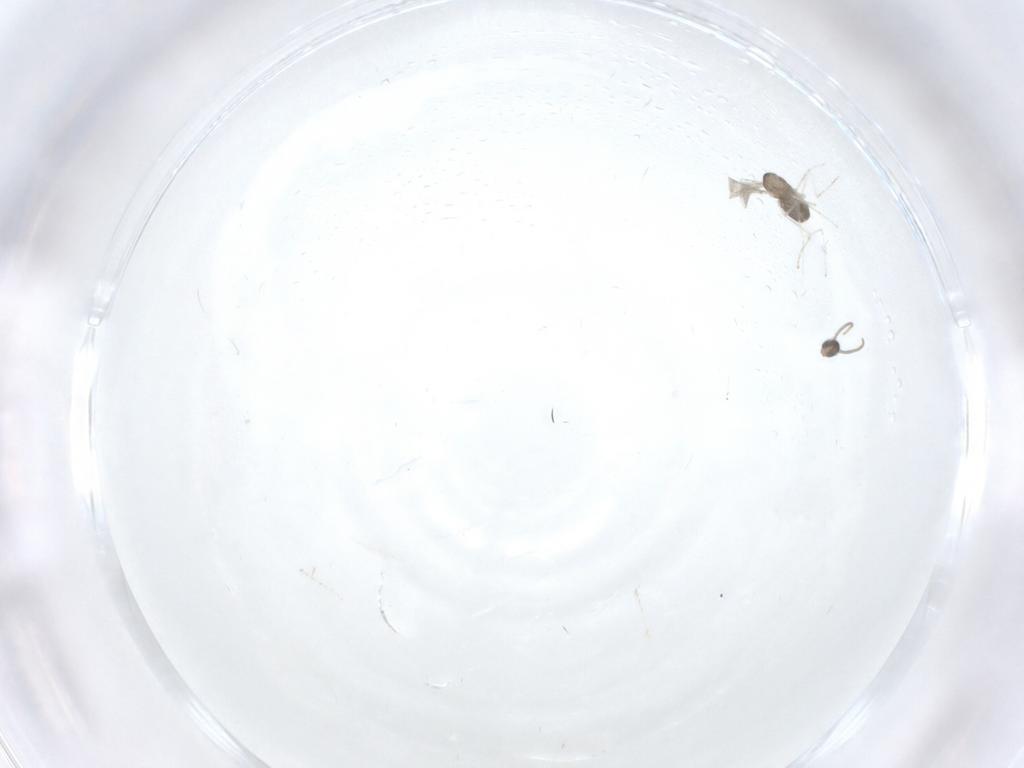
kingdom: Animalia
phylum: Arthropoda
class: Insecta
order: Diptera
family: Cecidomyiidae
